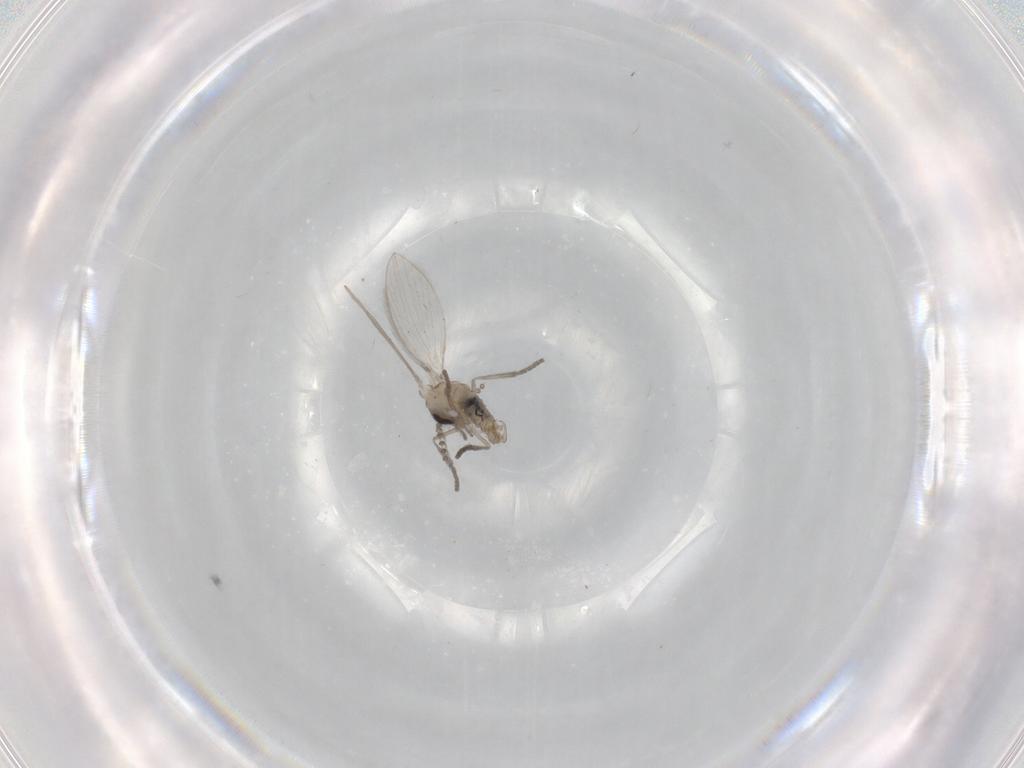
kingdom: Animalia
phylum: Arthropoda
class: Insecta
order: Diptera
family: Psychodidae
